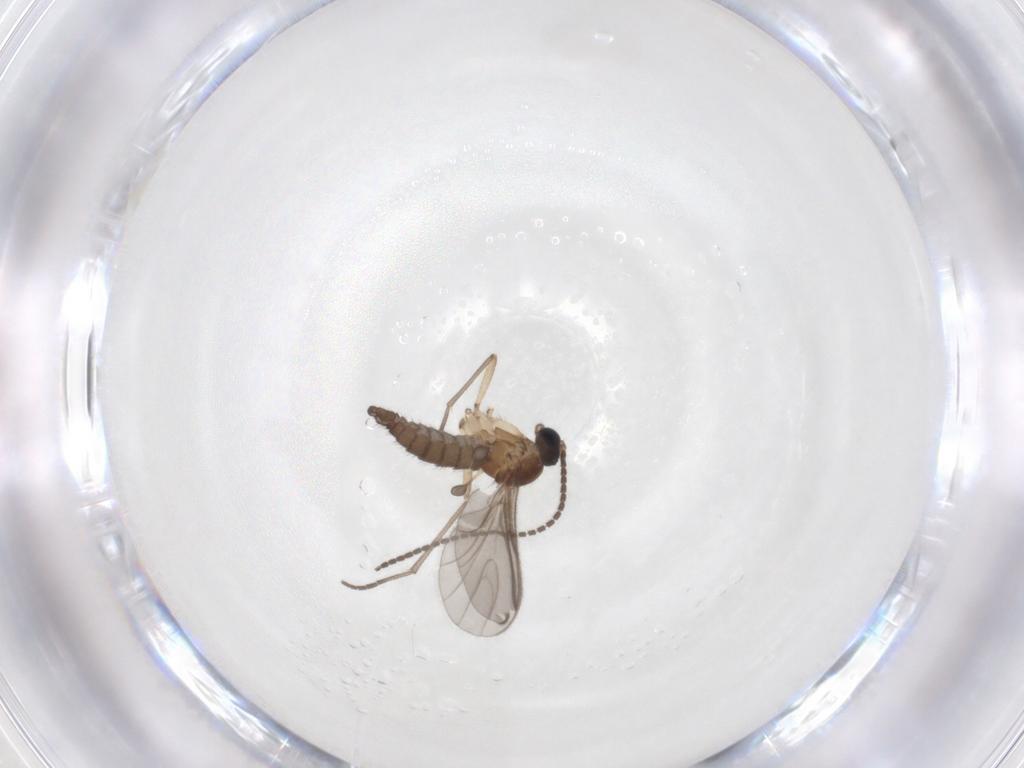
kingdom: Animalia
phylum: Arthropoda
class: Insecta
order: Diptera
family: Sciaridae
